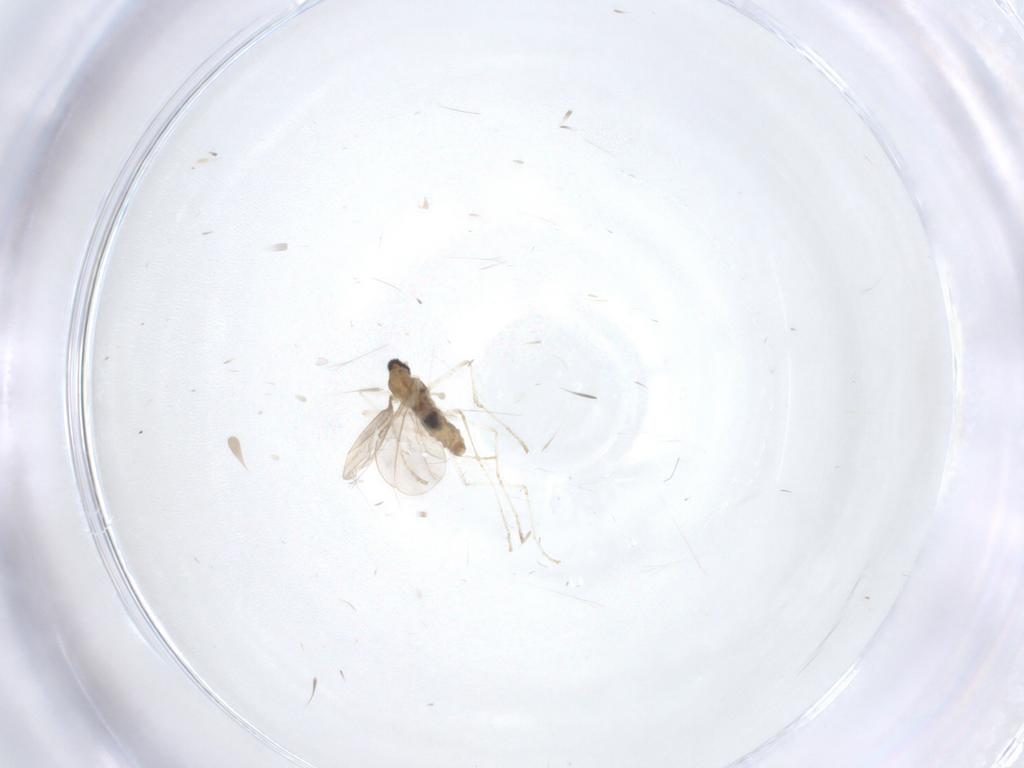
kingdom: Animalia
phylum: Arthropoda
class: Insecta
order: Diptera
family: Cecidomyiidae
